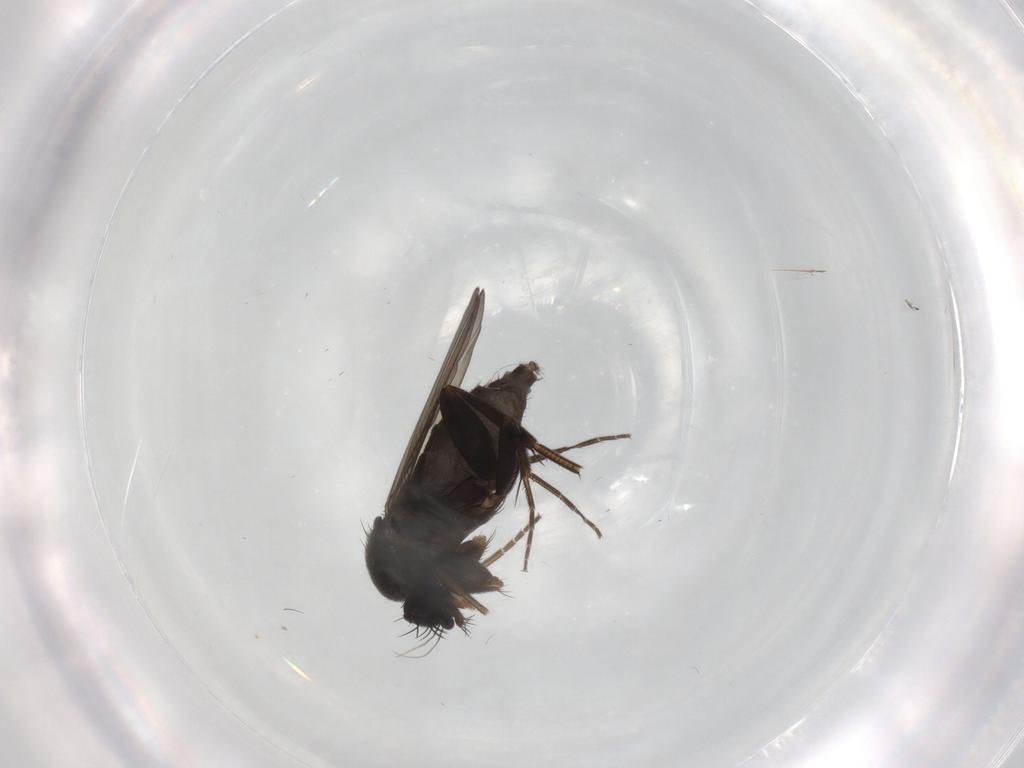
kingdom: Animalia
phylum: Arthropoda
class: Insecta
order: Diptera
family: Phoridae
